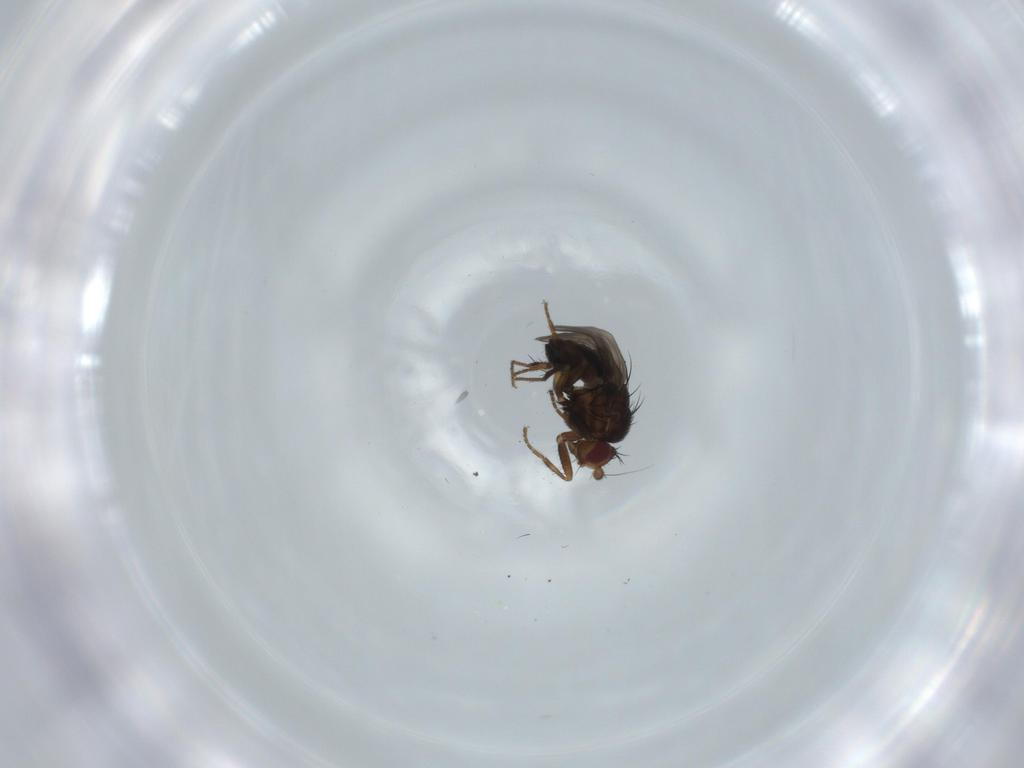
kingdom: Animalia
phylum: Arthropoda
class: Insecta
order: Diptera
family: Sphaeroceridae
